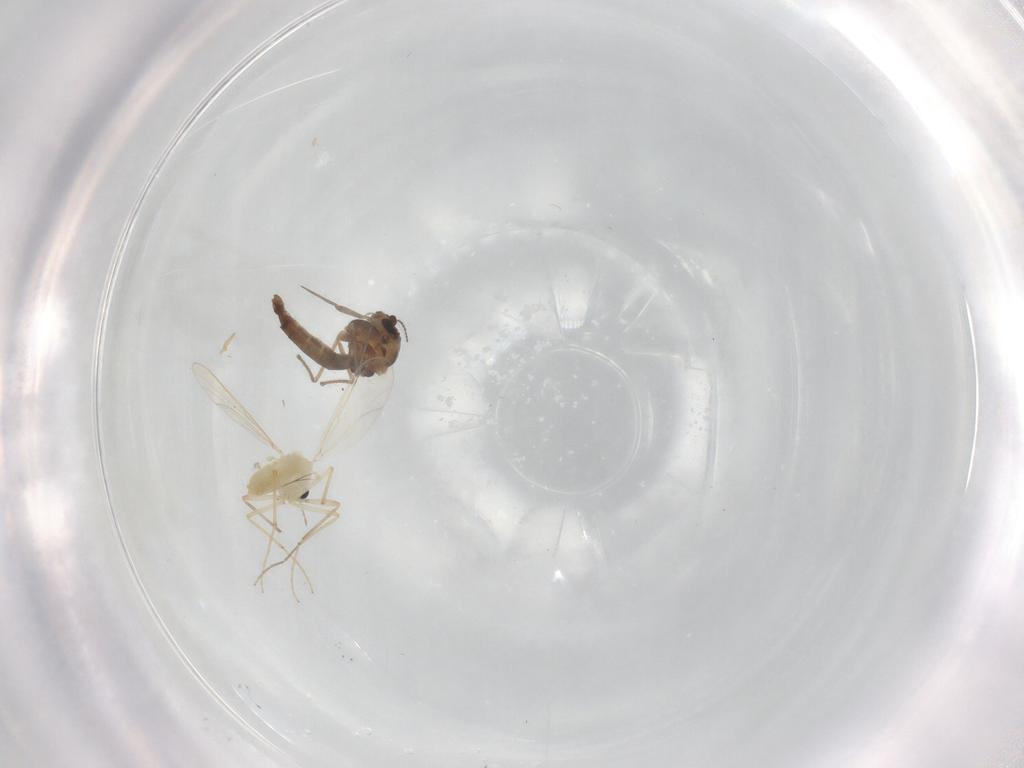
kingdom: Animalia
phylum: Arthropoda
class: Insecta
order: Diptera
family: Chironomidae
